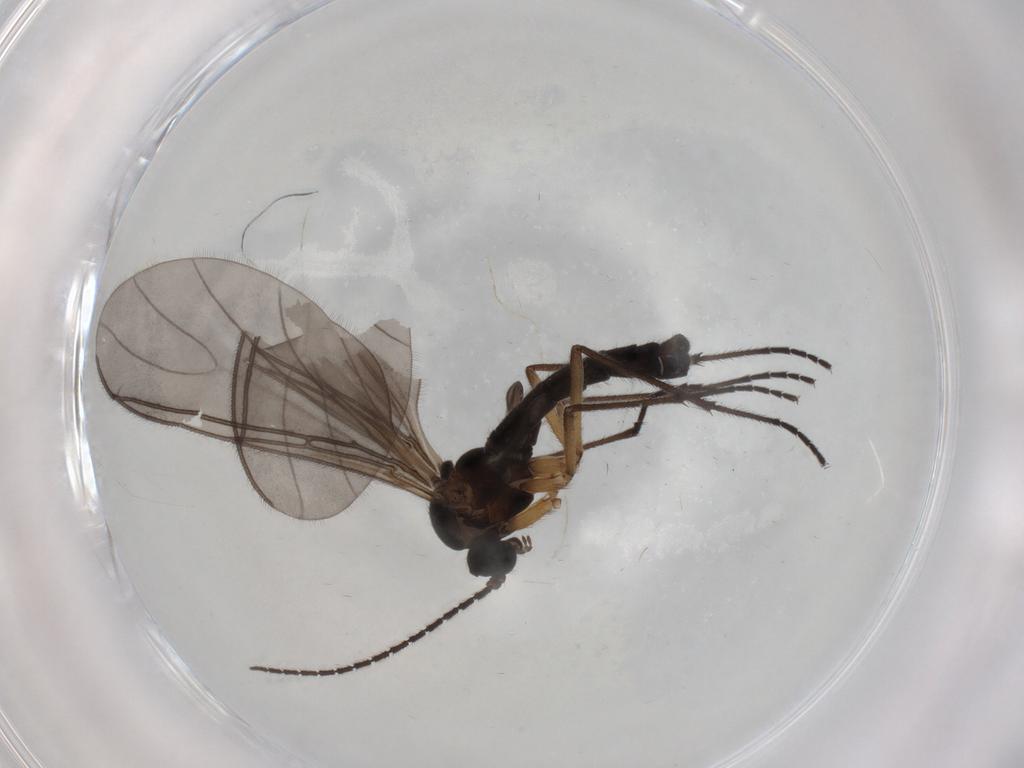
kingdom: Animalia
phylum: Arthropoda
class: Insecta
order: Diptera
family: Sciaridae
